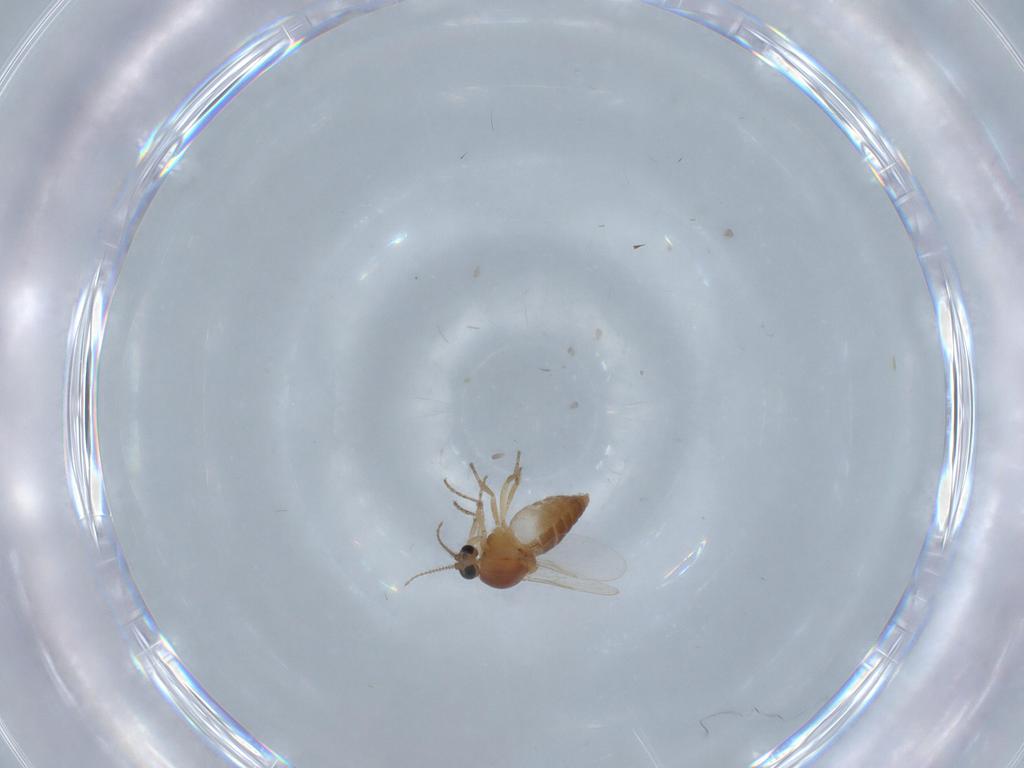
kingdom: Animalia
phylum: Arthropoda
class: Insecta
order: Diptera
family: Ceratopogonidae
